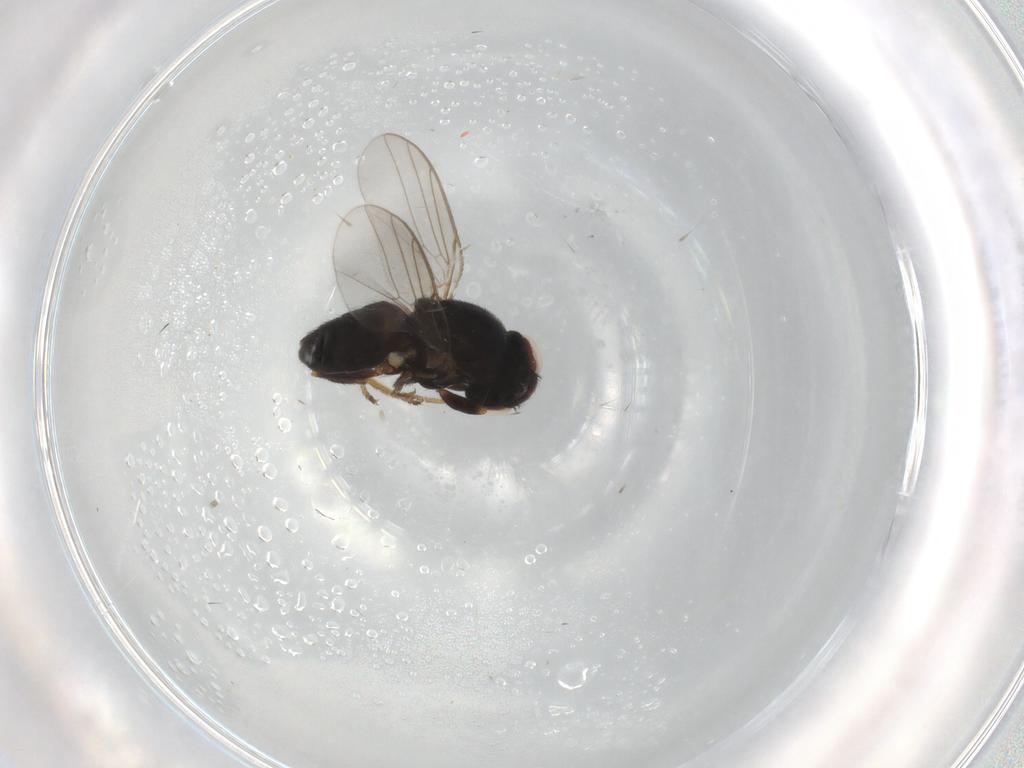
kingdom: Animalia
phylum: Arthropoda
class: Insecta
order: Diptera
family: Chloropidae
